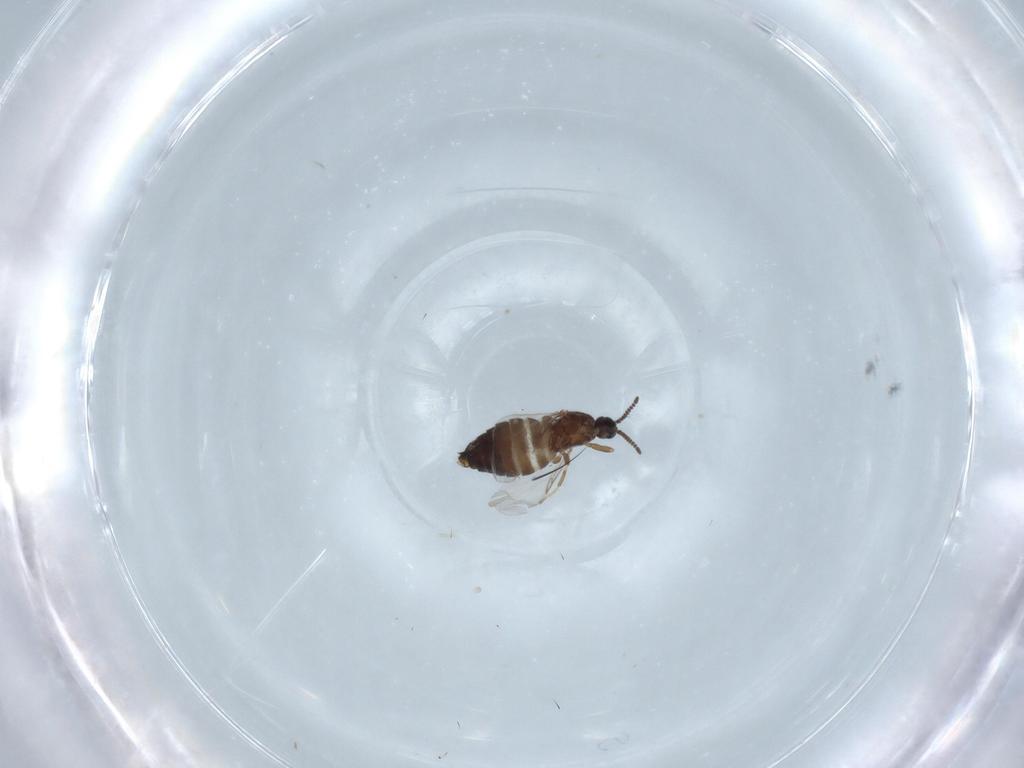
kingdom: Animalia
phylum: Arthropoda
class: Insecta
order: Diptera
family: Scatopsidae
